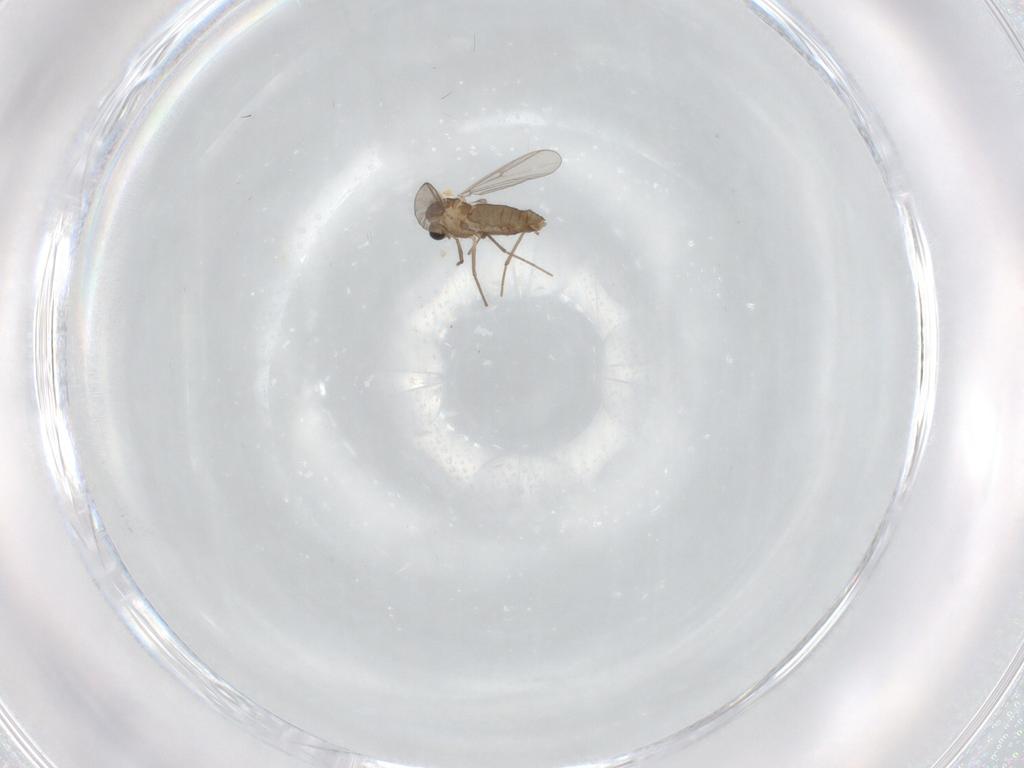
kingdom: Animalia
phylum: Arthropoda
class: Insecta
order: Diptera
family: Chironomidae
